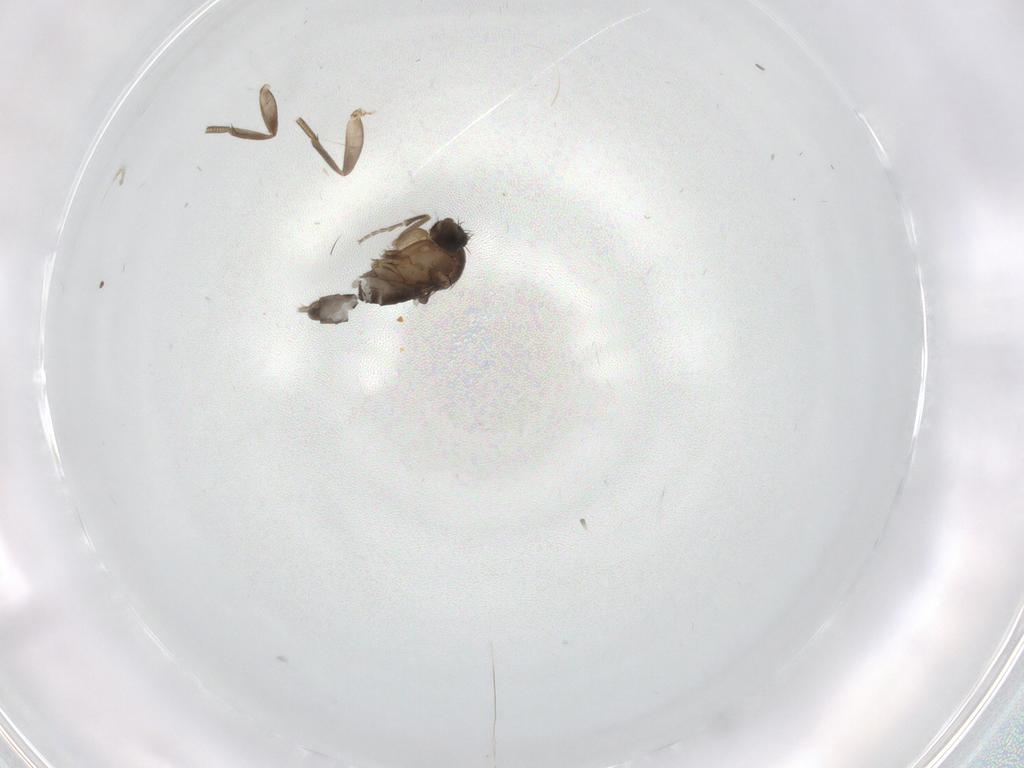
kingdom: Animalia
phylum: Arthropoda
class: Insecta
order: Diptera
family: Phoridae
